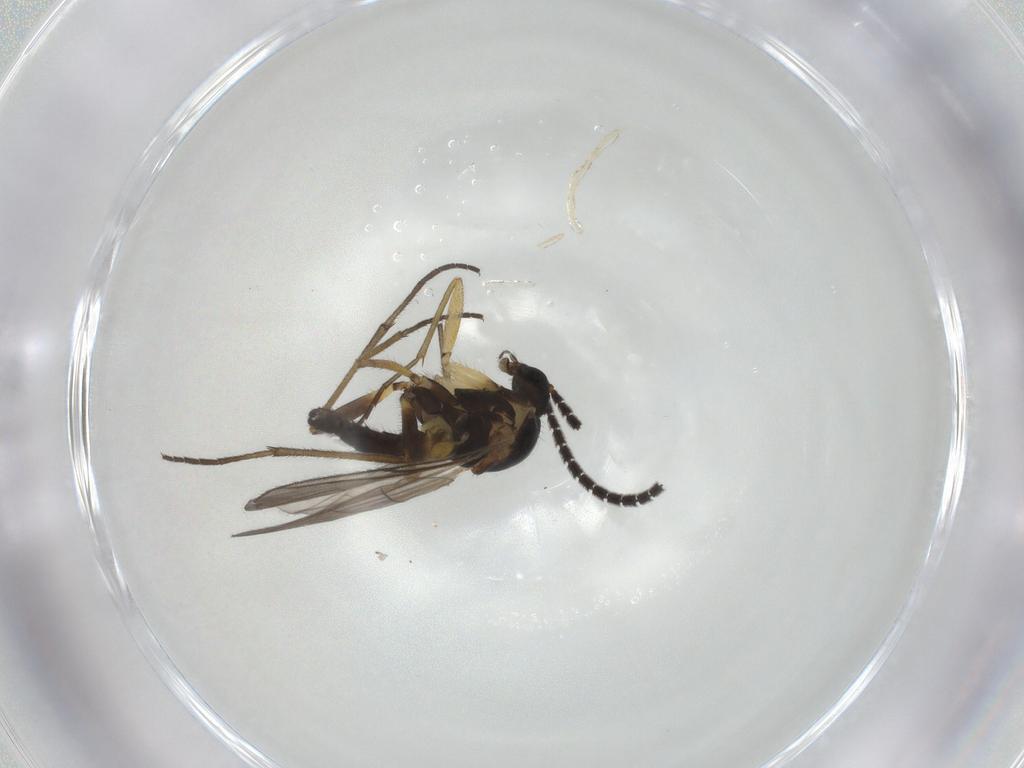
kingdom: Animalia
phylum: Arthropoda
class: Insecta
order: Diptera
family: Sciaridae
